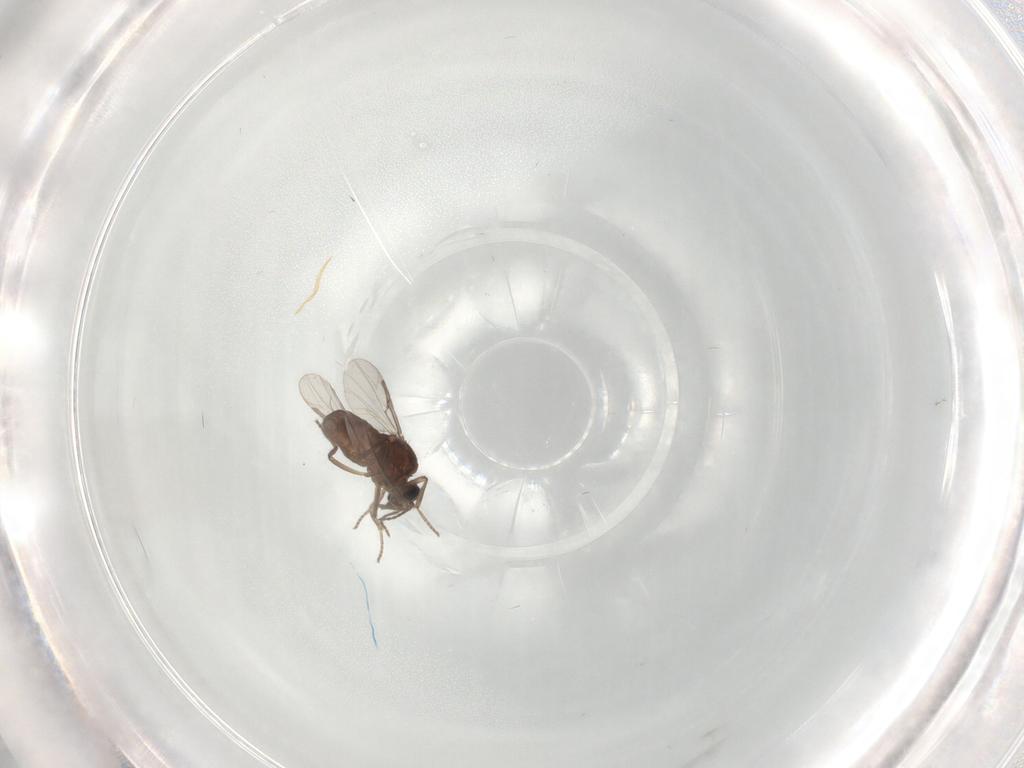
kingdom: Animalia
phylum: Arthropoda
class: Insecta
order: Diptera
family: Ceratopogonidae
